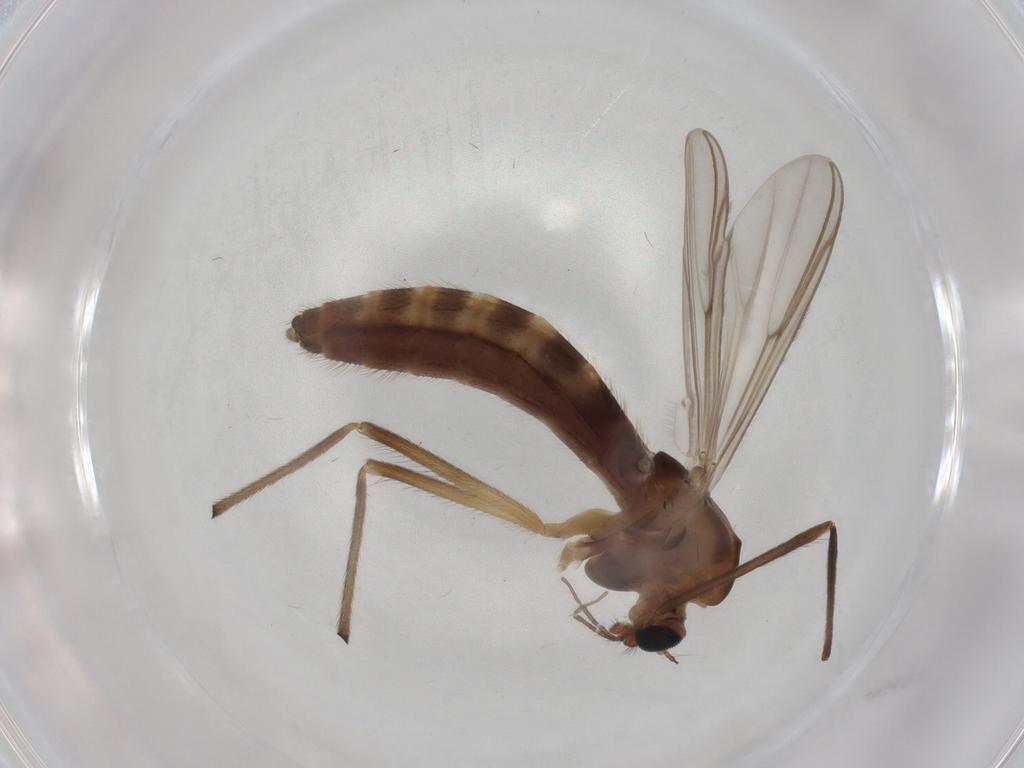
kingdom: Animalia
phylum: Arthropoda
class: Insecta
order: Diptera
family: Chironomidae
